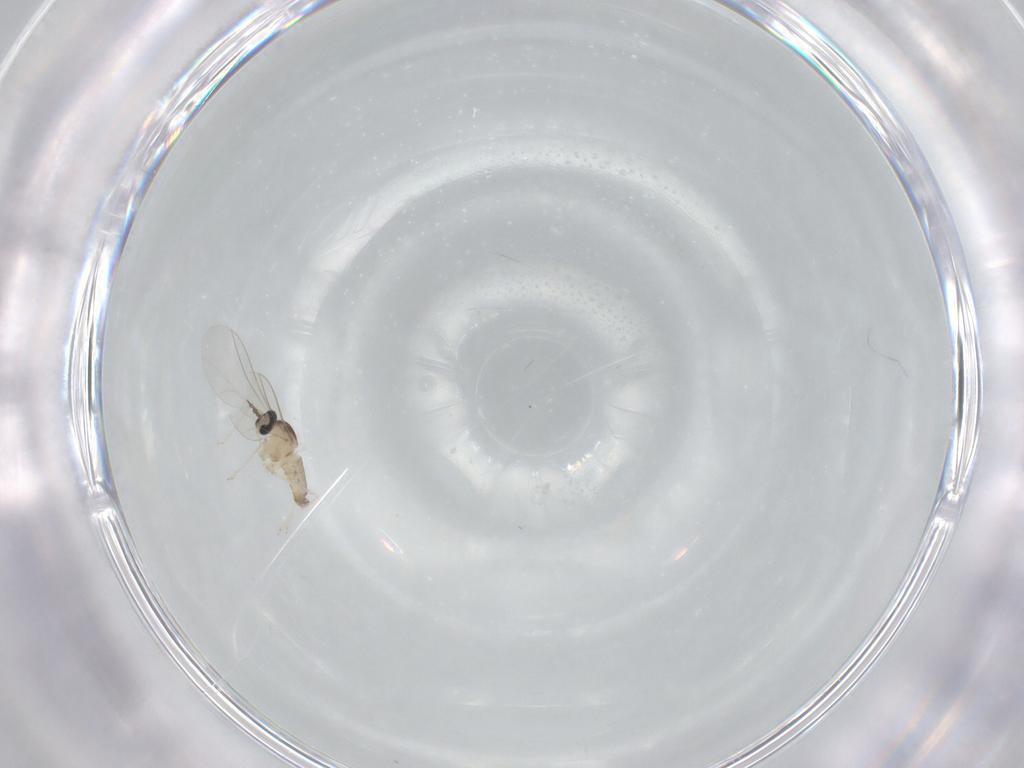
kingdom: Animalia
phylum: Arthropoda
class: Insecta
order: Diptera
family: Cecidomyiidae
